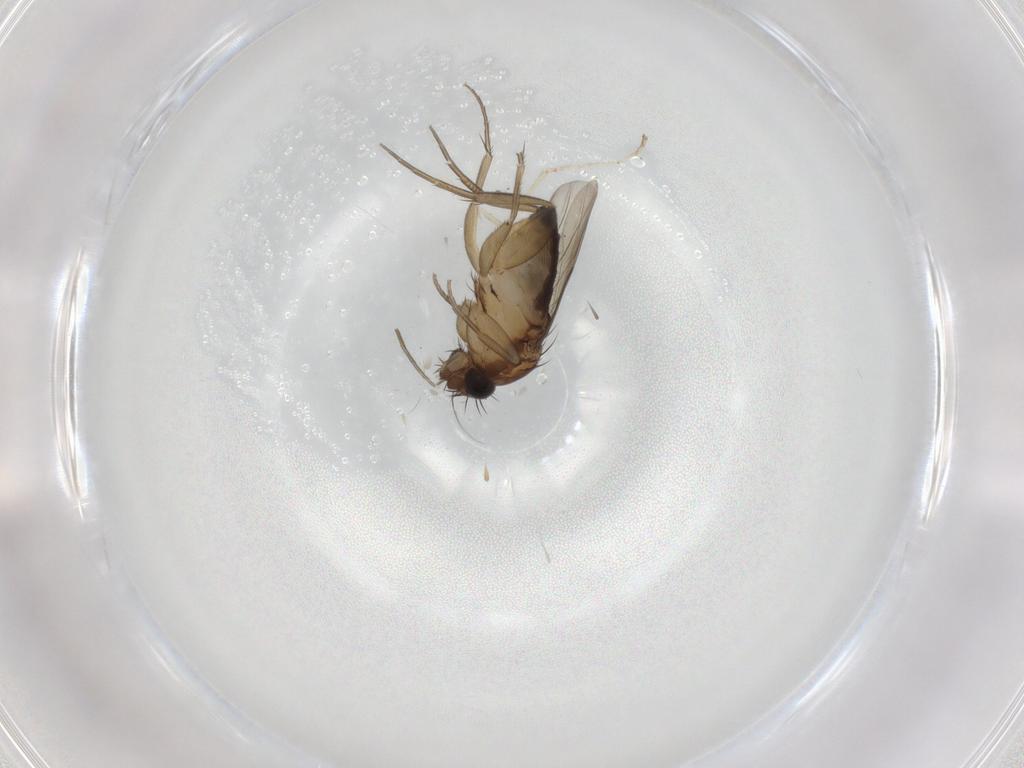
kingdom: Animalia
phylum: Arthropoda
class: Insecta
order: Diptera
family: Cecidomyiidae
